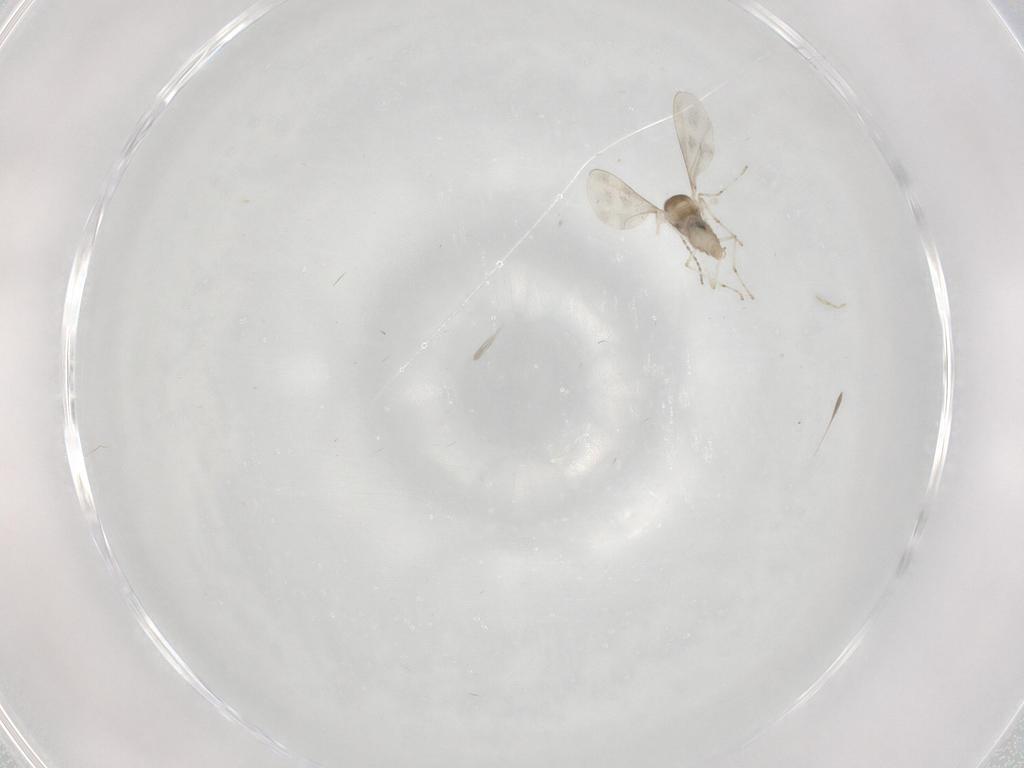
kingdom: Animalia
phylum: Arthropoda
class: Insecta
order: Diptera
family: Cecidomyiidae
